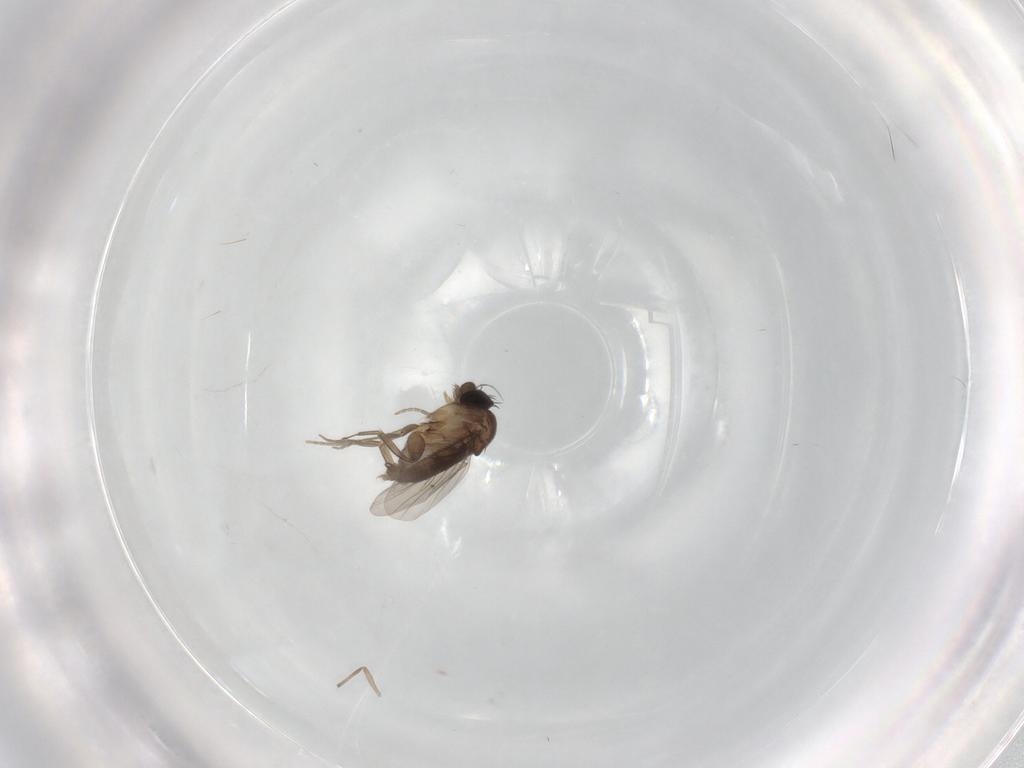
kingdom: Animalia
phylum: Arthropoda
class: Insecta
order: Diptera
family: Phoridae
